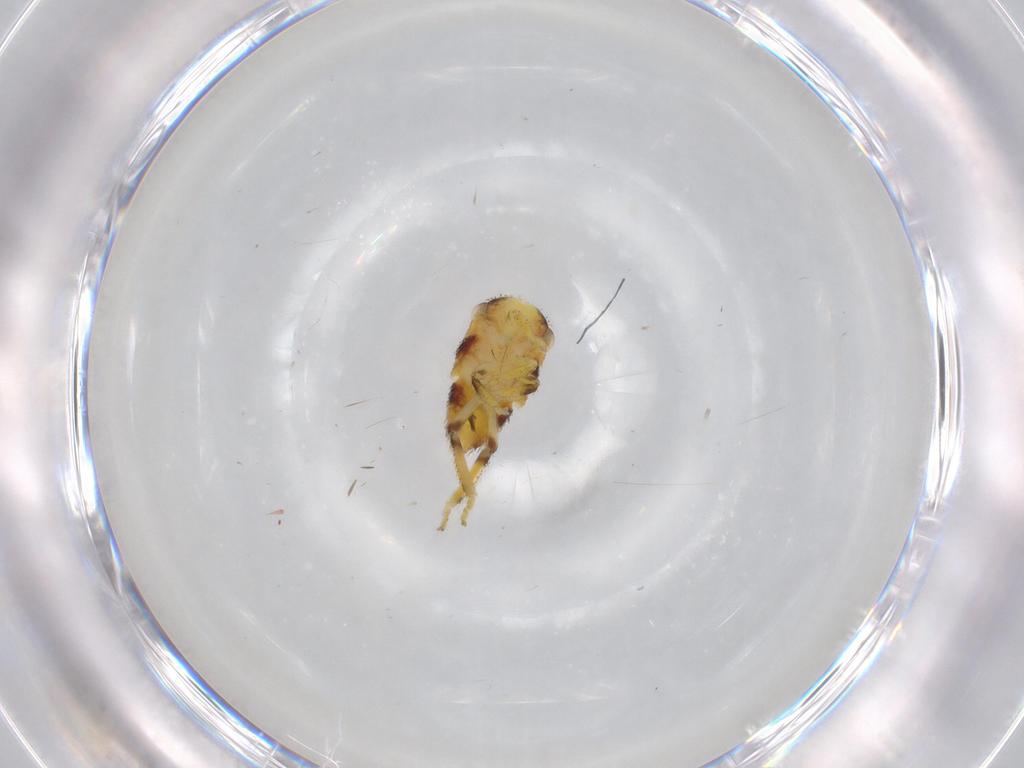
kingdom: Animalia
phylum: Arthropoda
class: Insecta
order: Hemiptera
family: Cicadellidae
